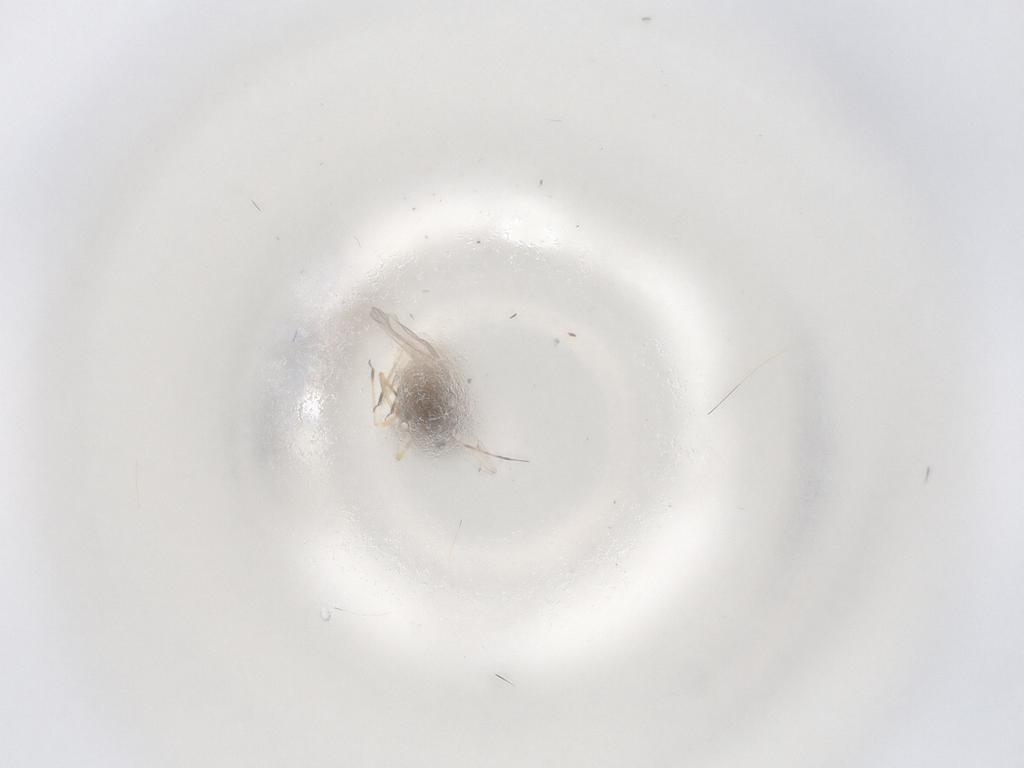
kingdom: Animalia
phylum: Arthropoda
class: Insecta
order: Hemiptera
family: Aphididae
